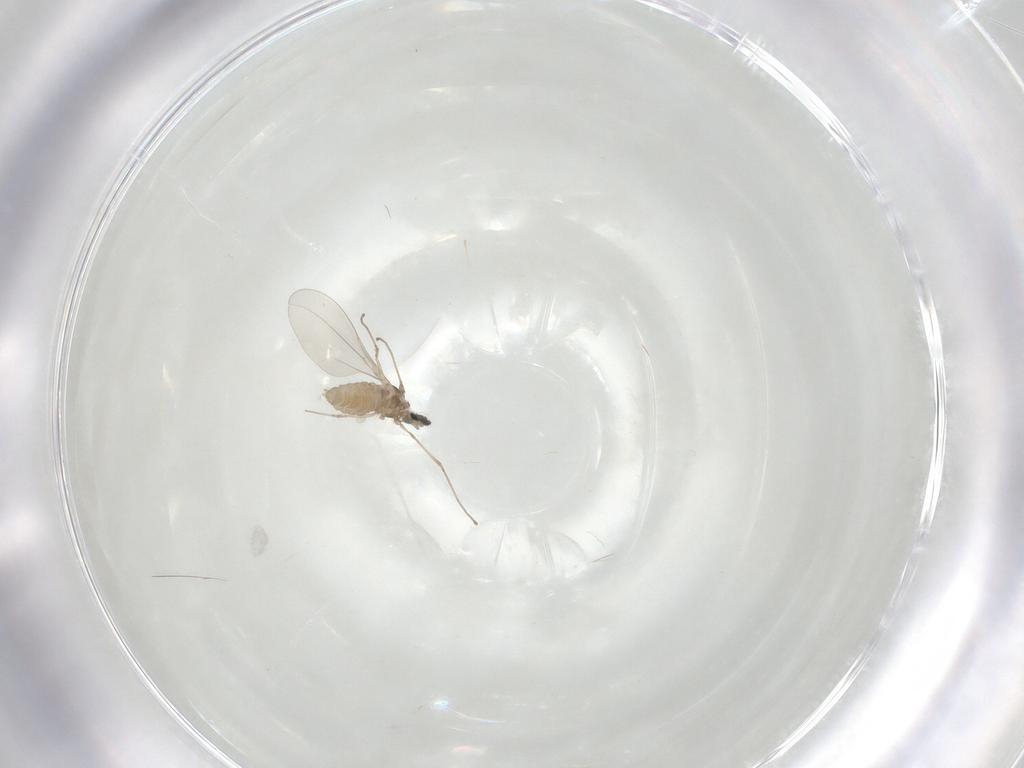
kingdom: Animalia
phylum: Arthropoda
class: Insecta
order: Diptera
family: Cecidomyiidae
